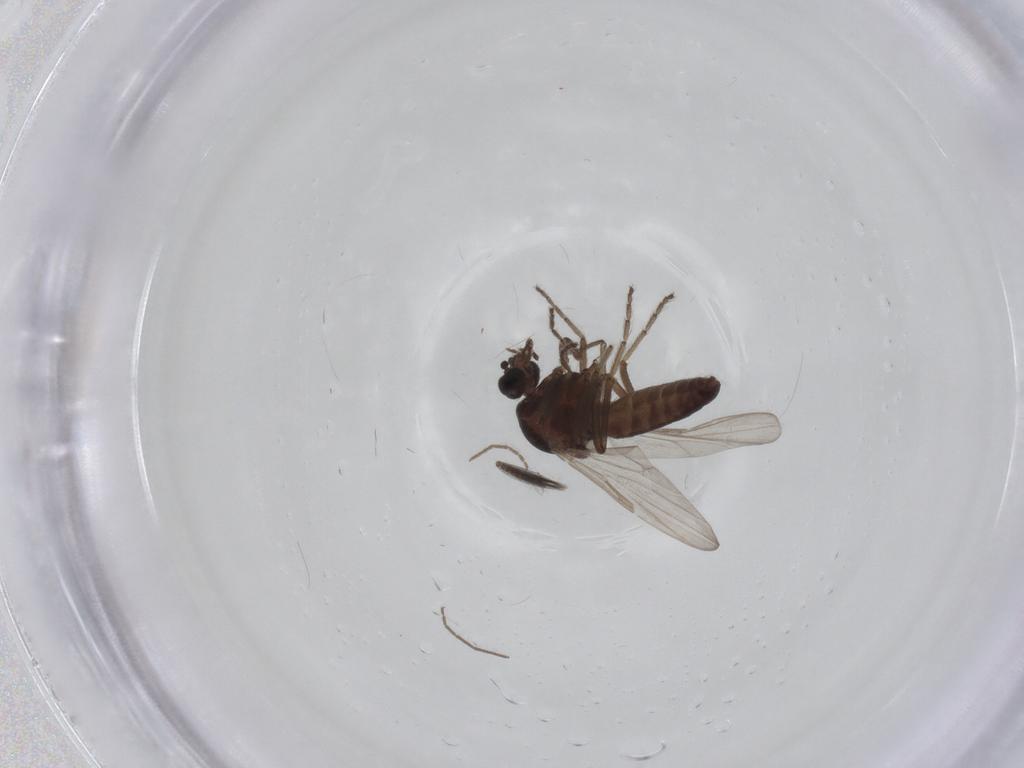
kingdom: Animalia
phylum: Arthropoda
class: Insecta
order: Diptera
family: Ceratopogonidae
